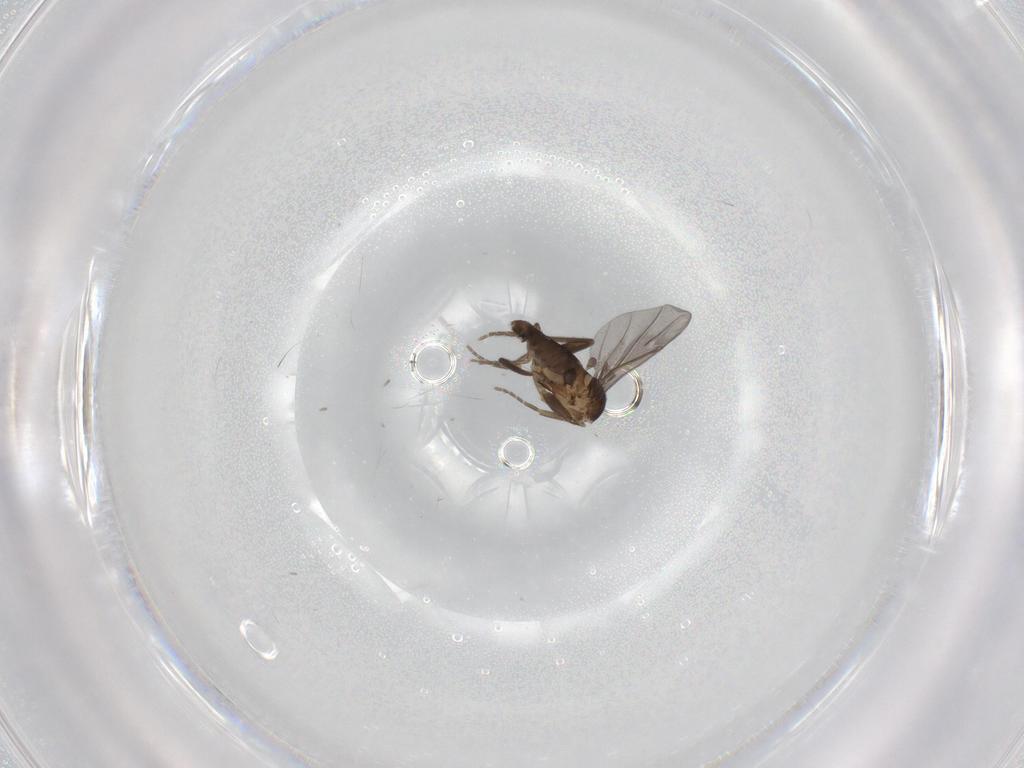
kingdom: Animalia
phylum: Arthropoda
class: Insecta
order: Diptera
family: Phoridae
